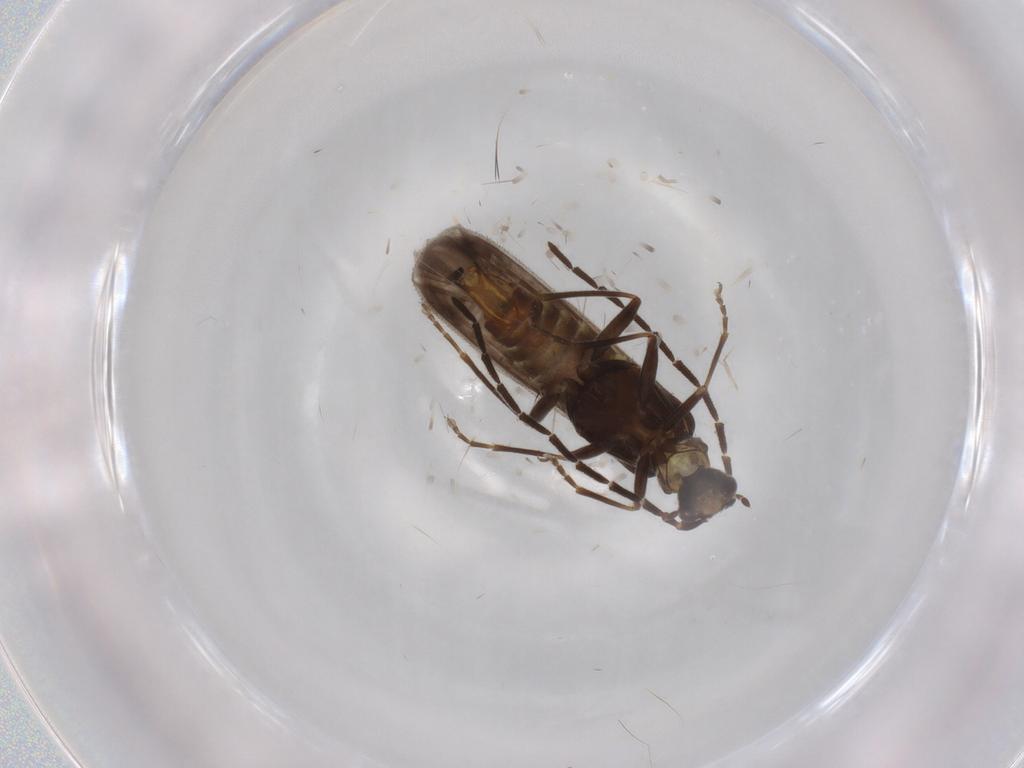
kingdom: Animalia
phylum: Arthropoda
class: Insecta
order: Coleoptera
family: Cantharidae
